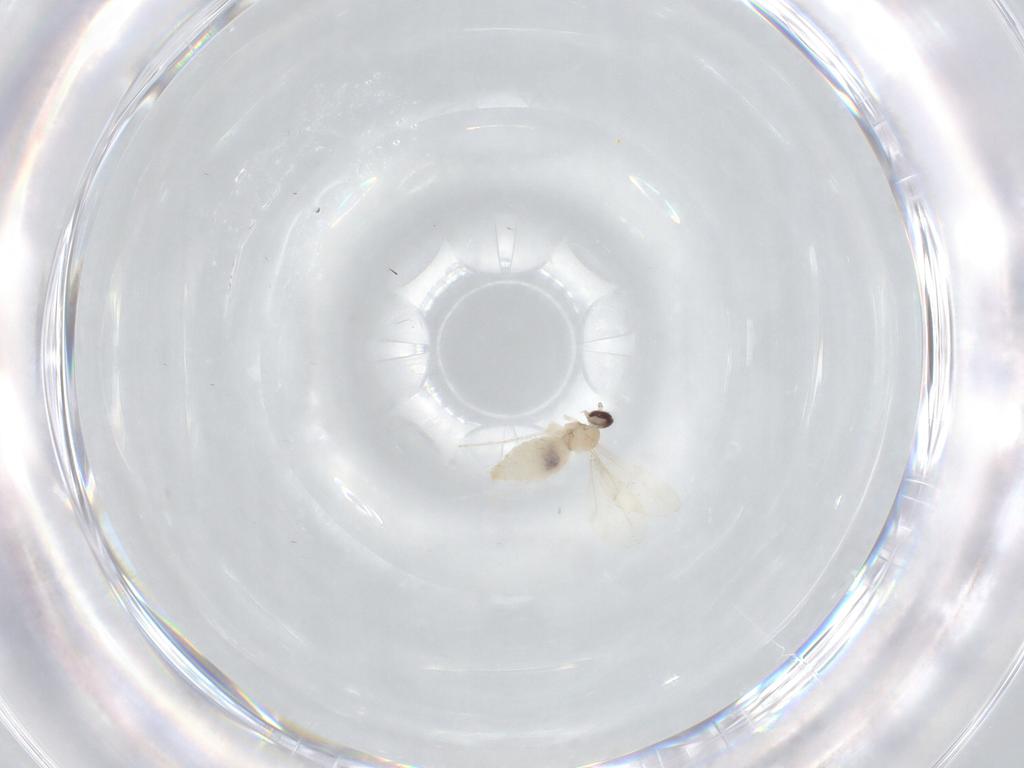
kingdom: Animalia
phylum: Arthropoda
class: Insecta
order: Diptera
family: Cecidomyiidae
